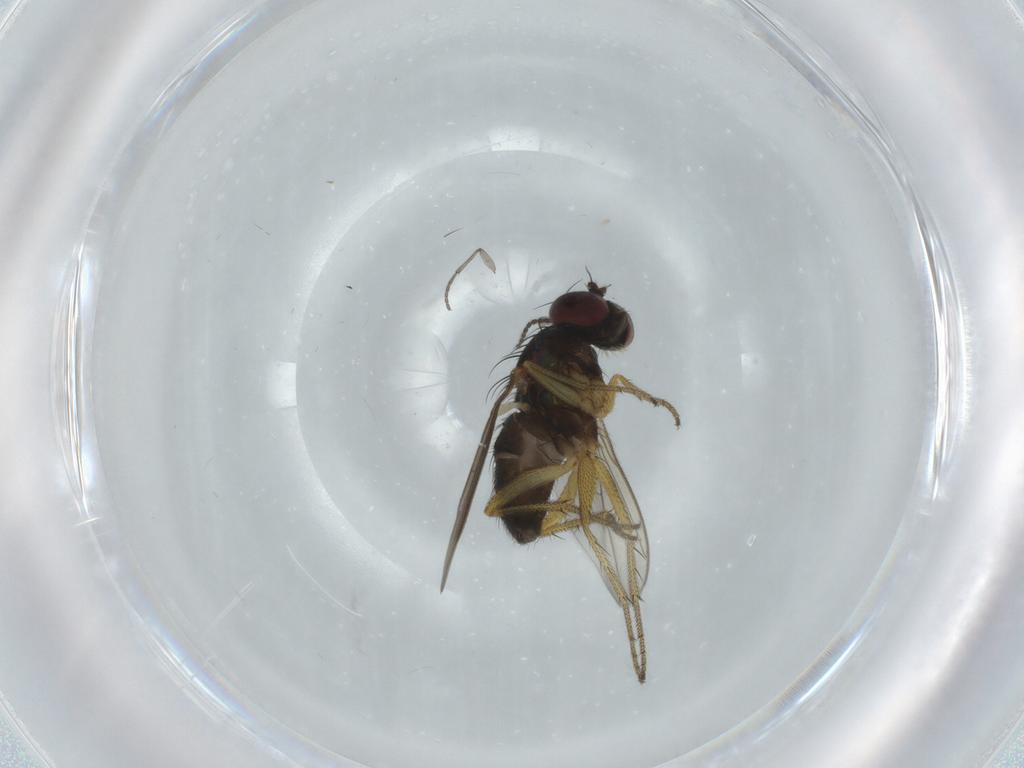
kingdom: Animalia
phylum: Arthropoda
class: Insecta
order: Diptera
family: Sciaridae
